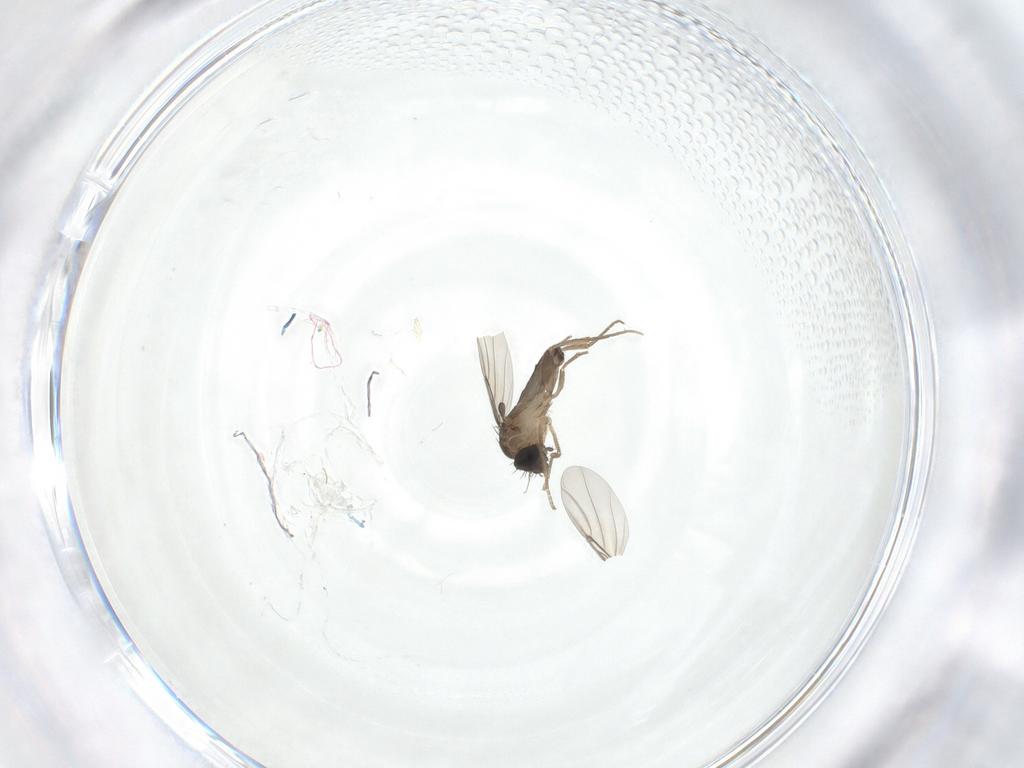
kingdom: Animalia
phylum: Arthropoda
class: Insecta
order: Diptera
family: Phoridae
